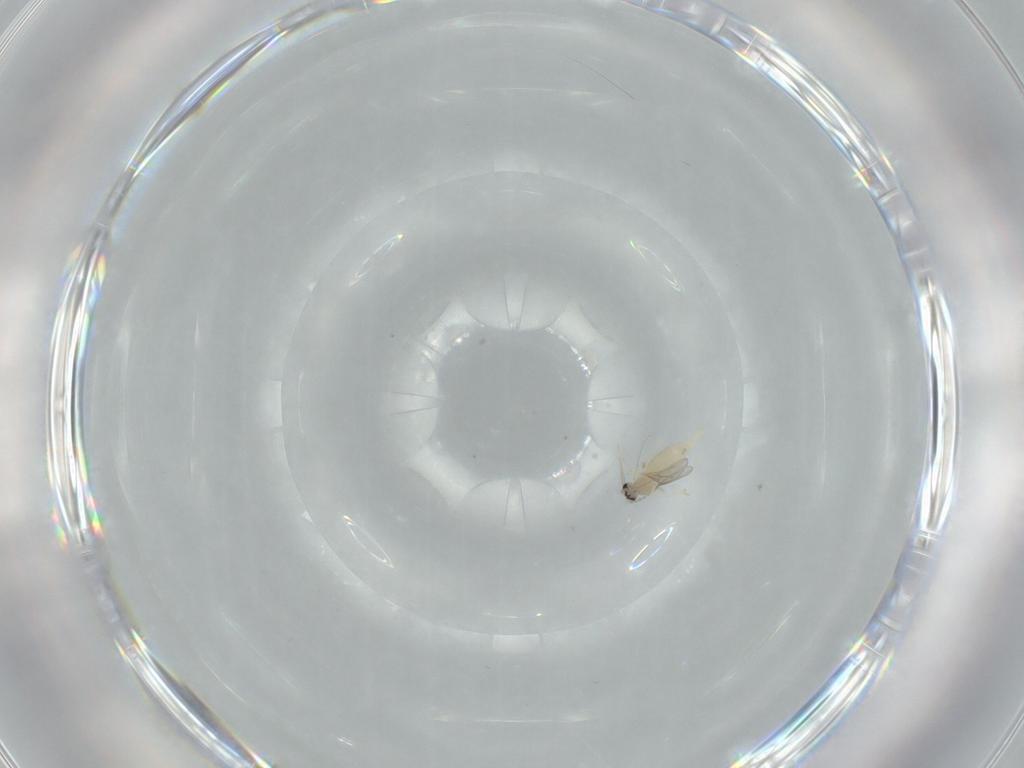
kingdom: Animalia
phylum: Arthropoda
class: Insecta
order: Diptera
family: Cecidomyiidae
